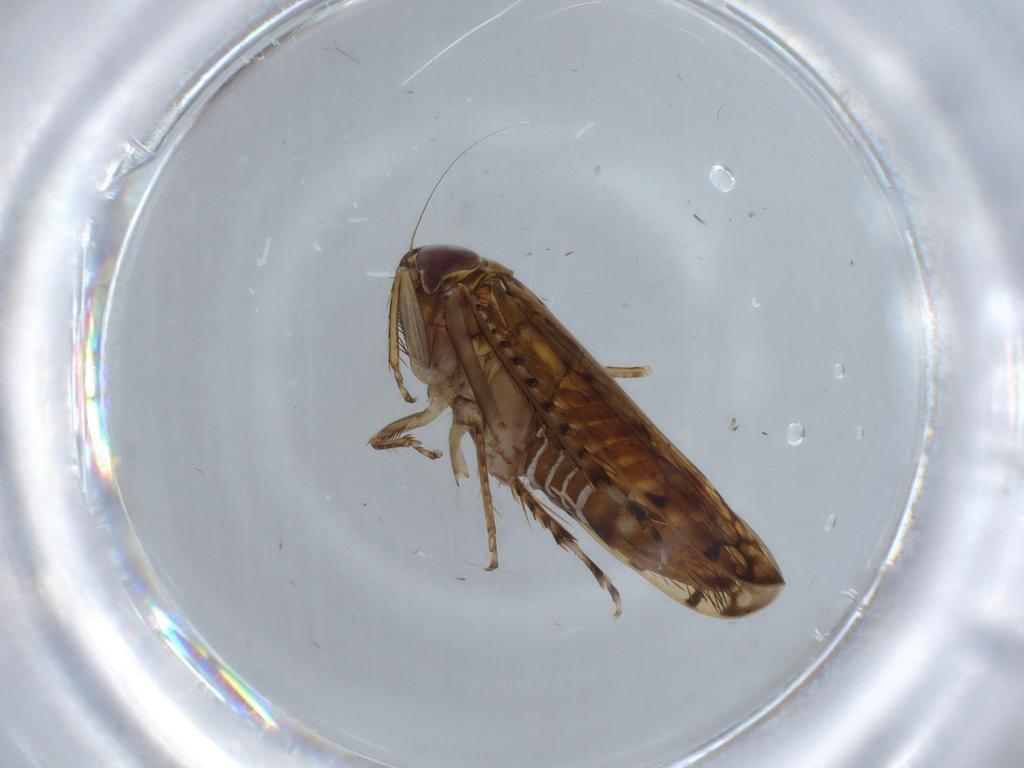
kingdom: Animalia
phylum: Arthropoda
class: Insecta
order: Hemiptera
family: Cicadellidae
